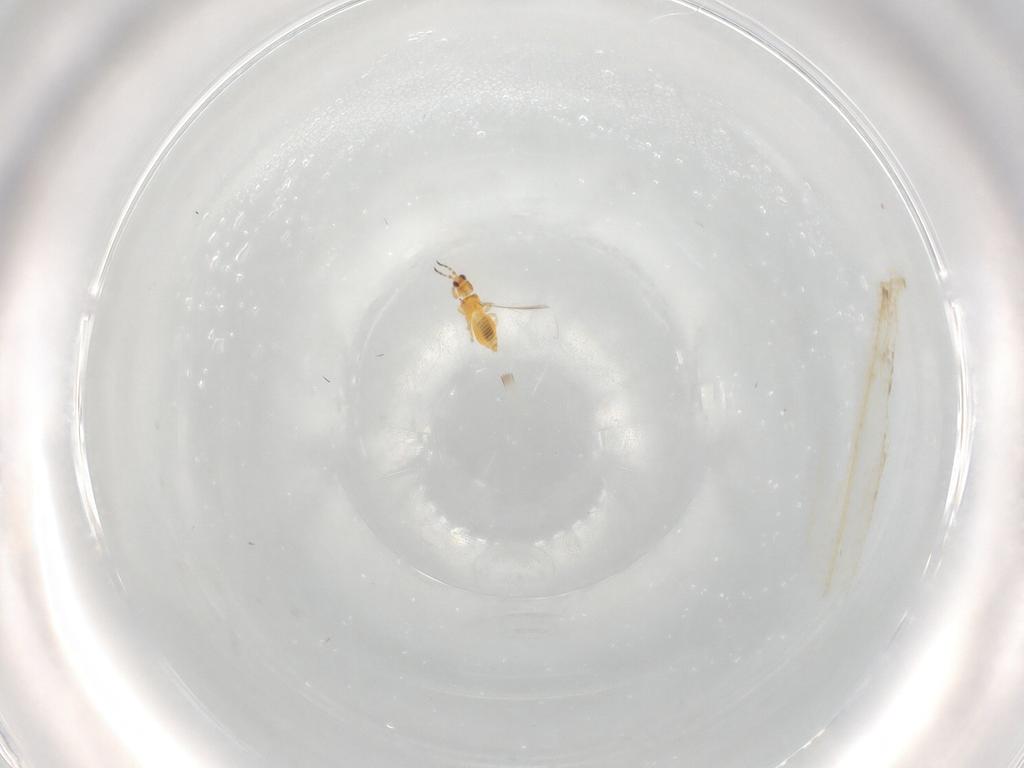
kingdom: Animalia
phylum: Arthropoda
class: Insecta
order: Thysanoptera
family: Thripidae
